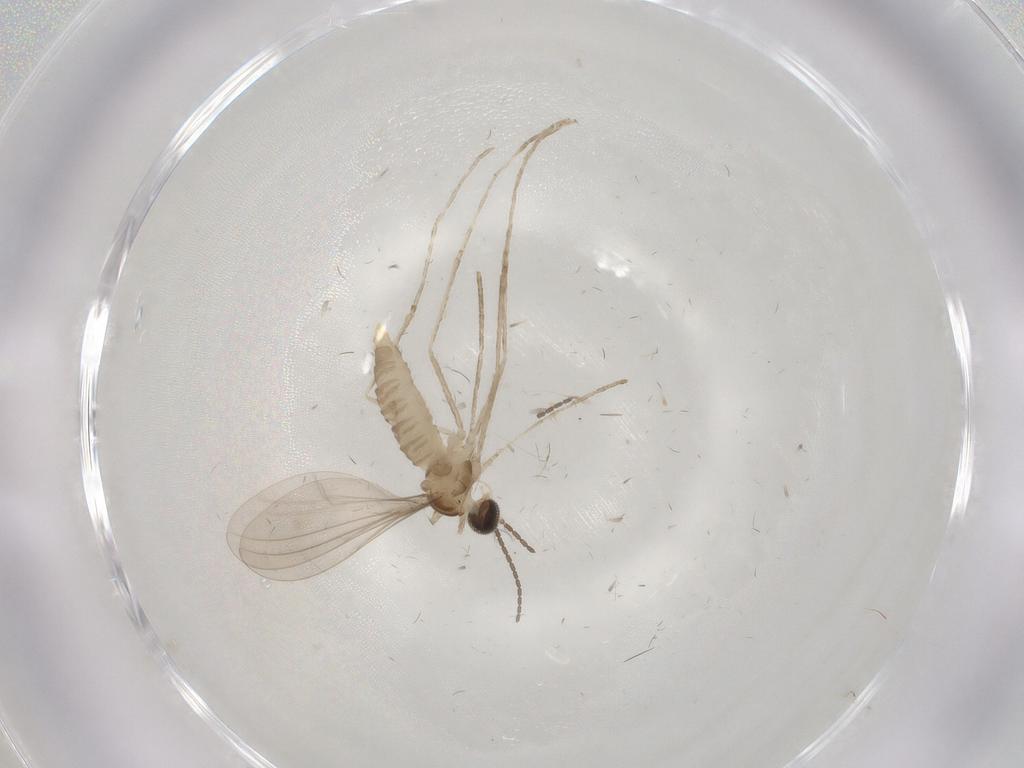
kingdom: Animalia
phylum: Arthropoda
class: Insecta
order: Diptera
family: Cecidomyiidae
